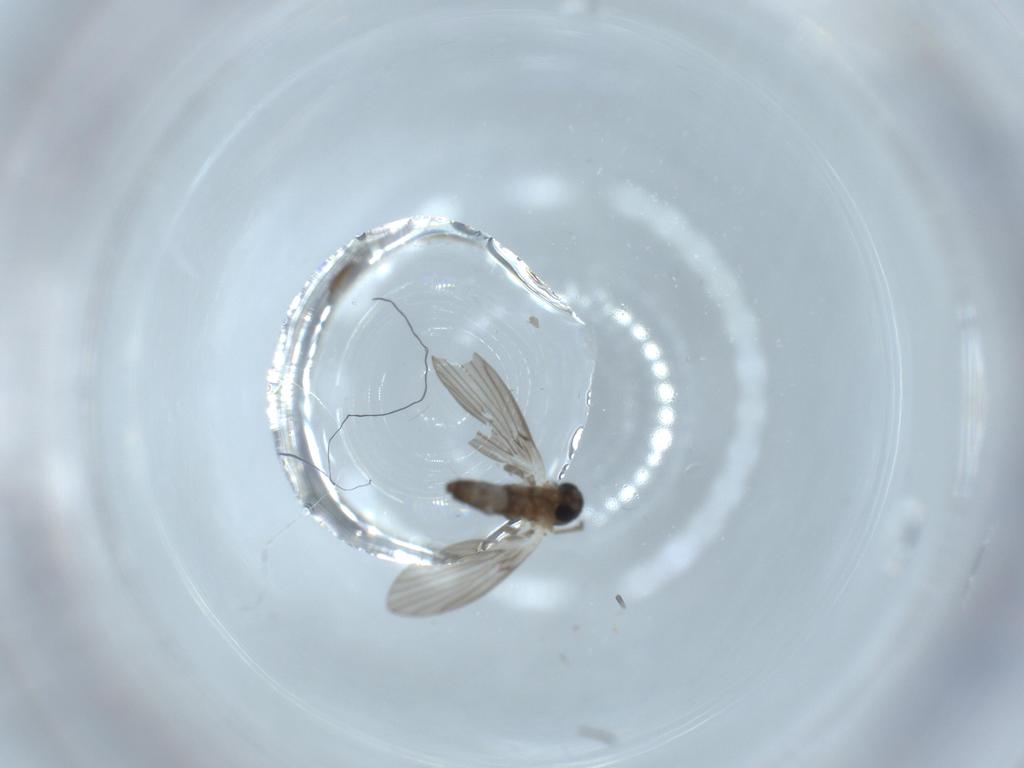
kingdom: Animalia
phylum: Arthropoda
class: Insecta
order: Diptera
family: Psychodidae
